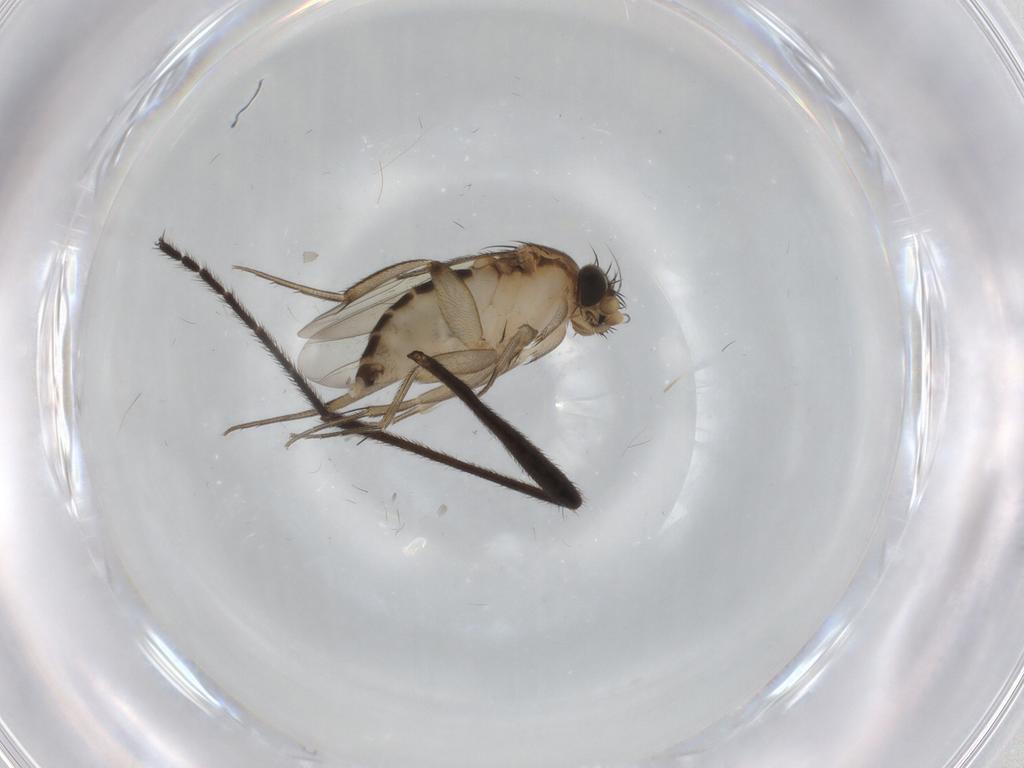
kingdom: Animalia
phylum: Arthropoda
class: Insecta
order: Diptera
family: Phoridae
